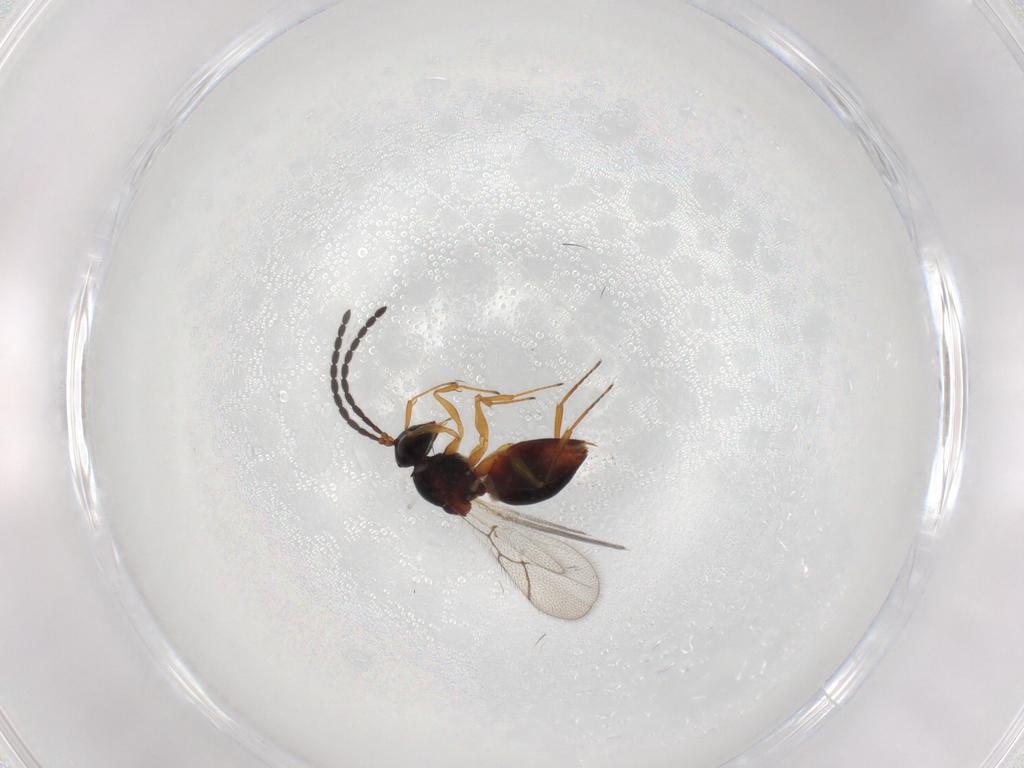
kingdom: Animalia
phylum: Arthropoda
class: Insecta
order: Hymenoptera
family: Figitidae
